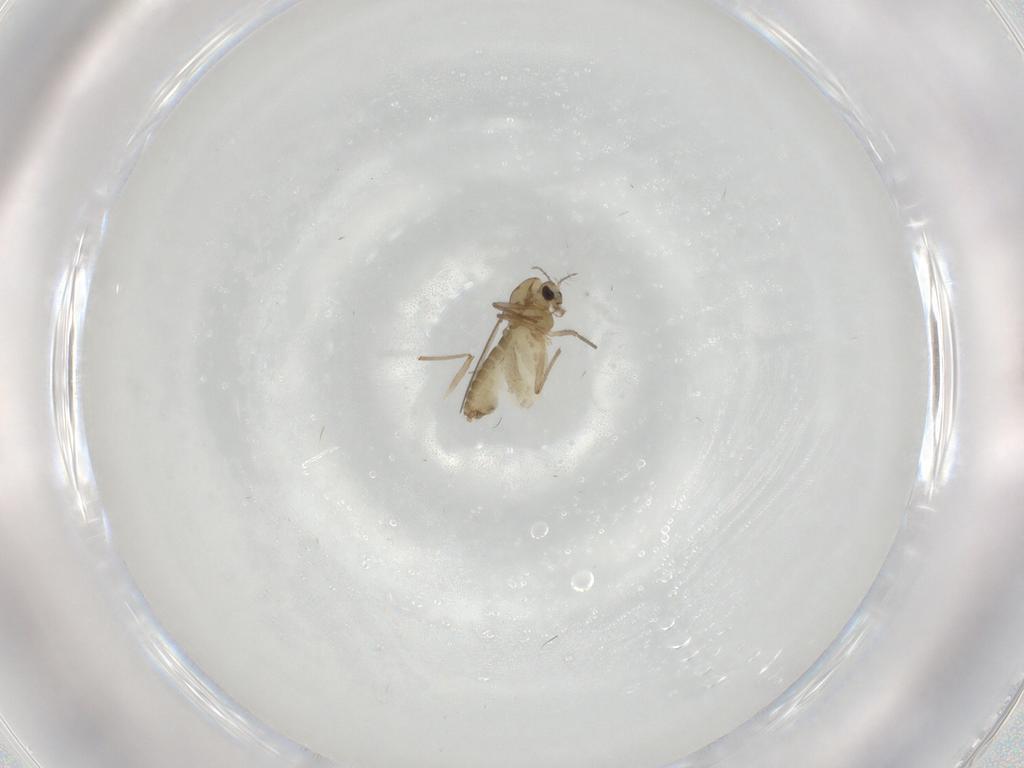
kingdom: Animalia
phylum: Arthropoda
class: Insecta
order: Diptera
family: Chironomidae
